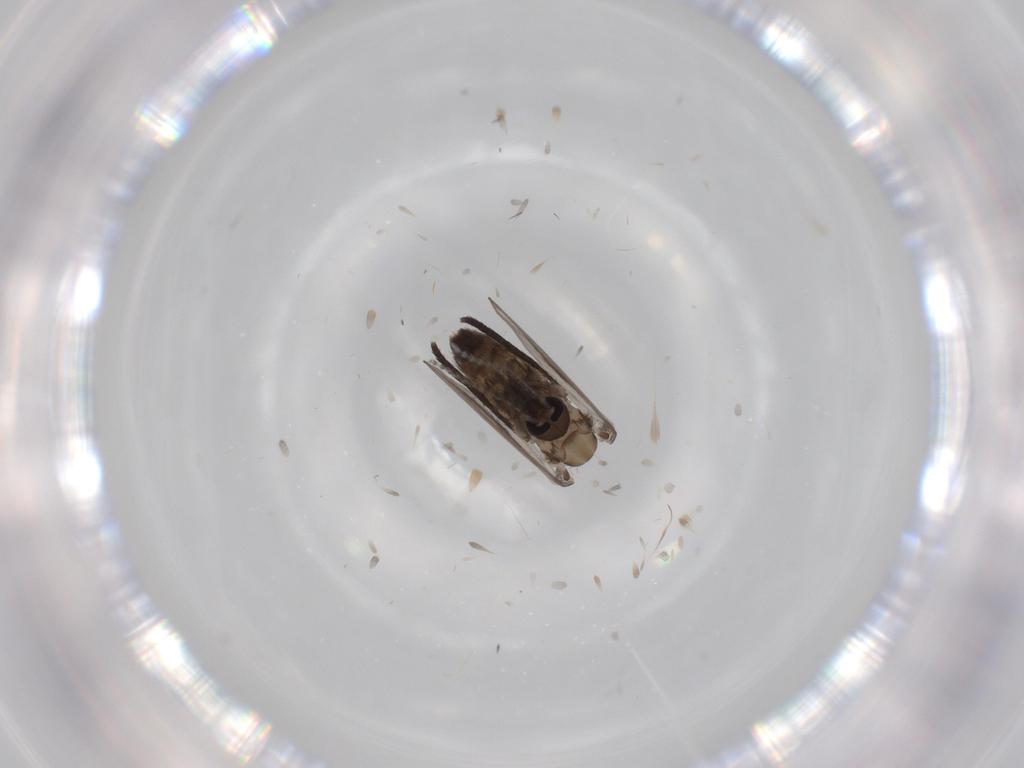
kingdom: Animalia
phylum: Arthropoda
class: Insecta
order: Diptera
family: Psychodidae
